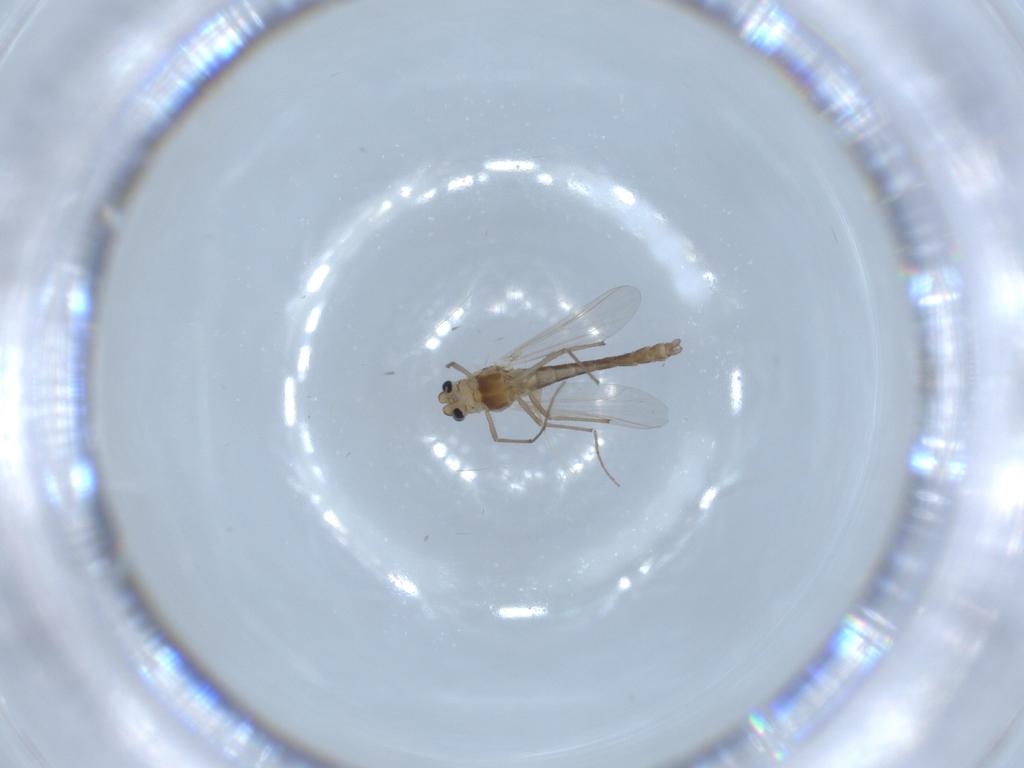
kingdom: Animalia
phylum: Arthropoda
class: Insecta
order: Diptera
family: Chironomidae
